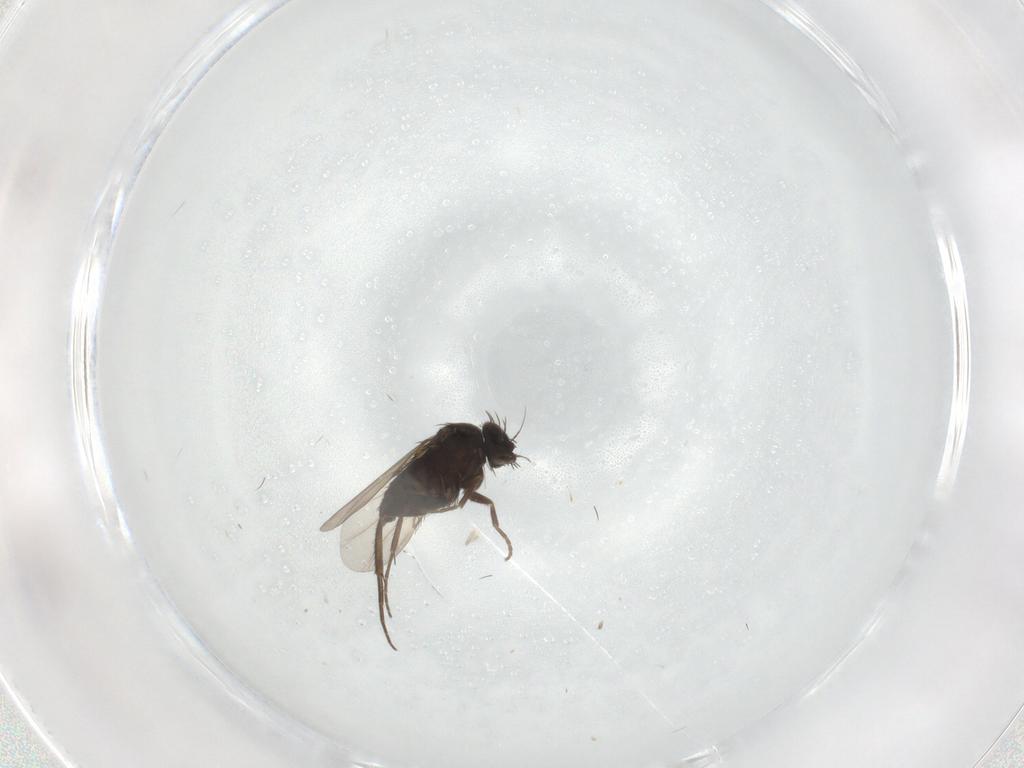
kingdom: Animalia
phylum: Arthropoda
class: Insecta
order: Diptera
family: Phoridae
